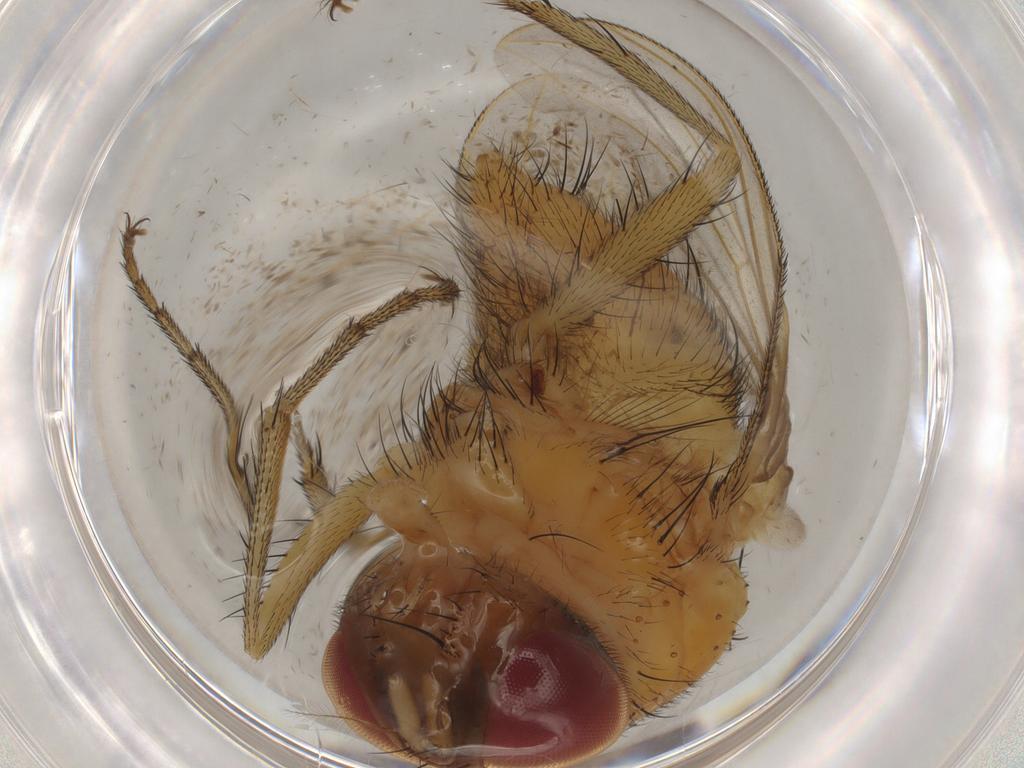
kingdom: Animalia
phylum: Arthropoda
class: Insecta
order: Diptera
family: Chironomidae
